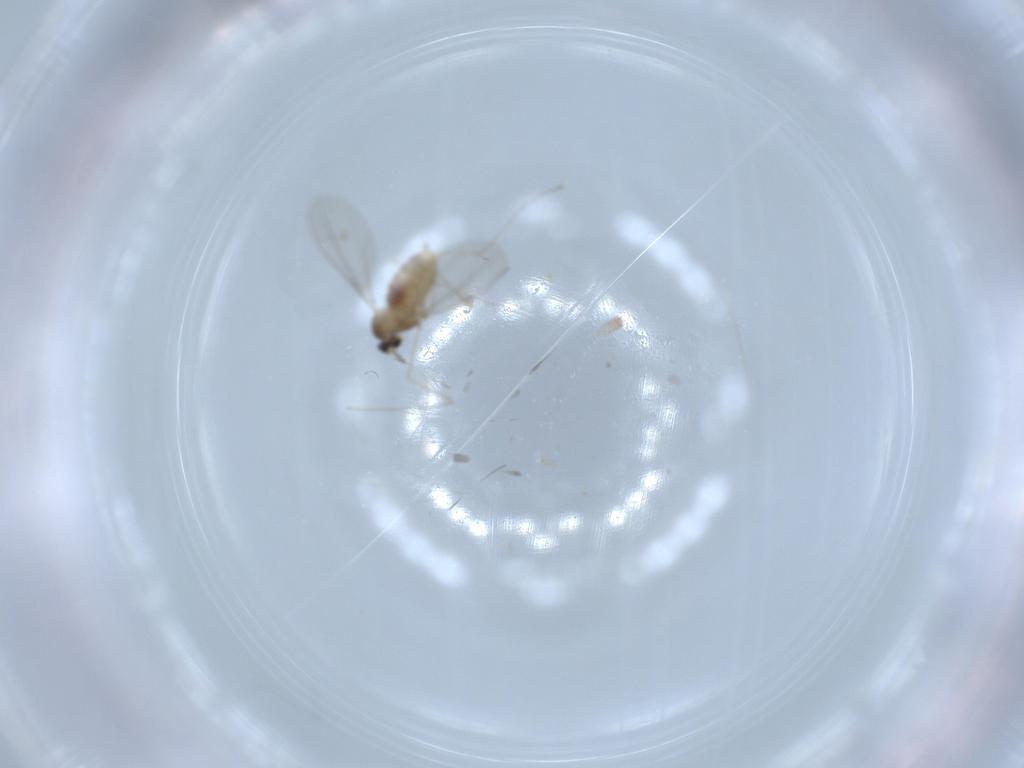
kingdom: Animalia
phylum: Arthropoda
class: Insecta
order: Diptera
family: Cecidomyiidae
